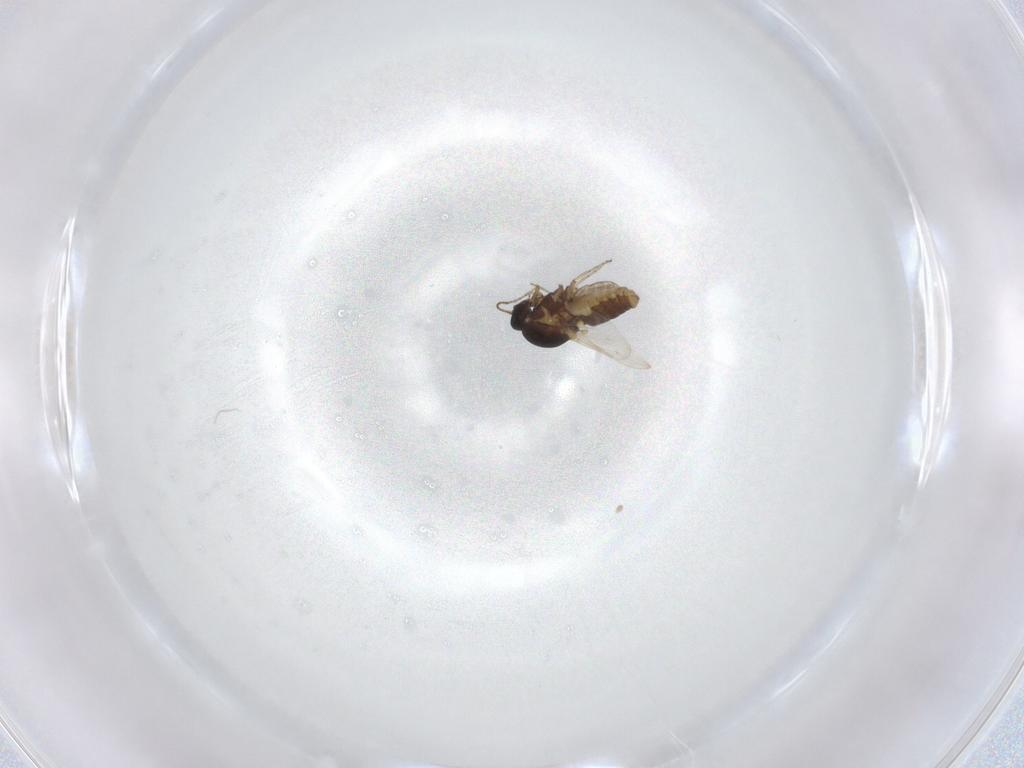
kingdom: Animalia
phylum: Arthropoda
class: Insecta
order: Diptera
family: Ceratopogonidae
